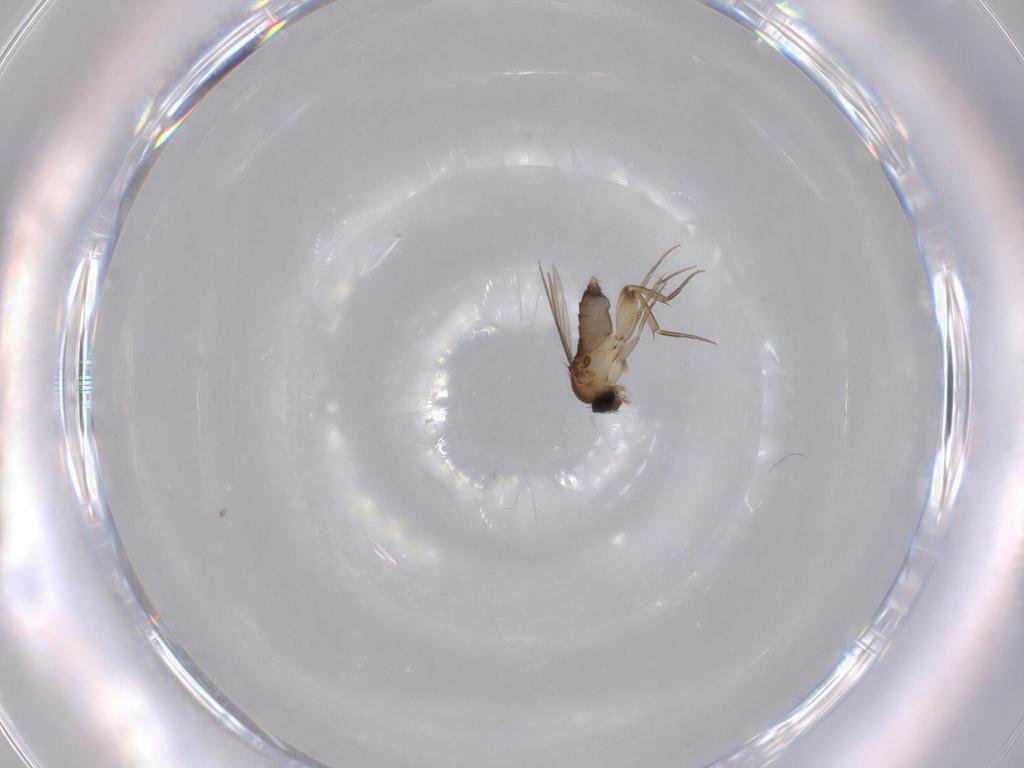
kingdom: Animalia
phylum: Arthropoda
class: Insecta
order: Diptera
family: Phoridae
